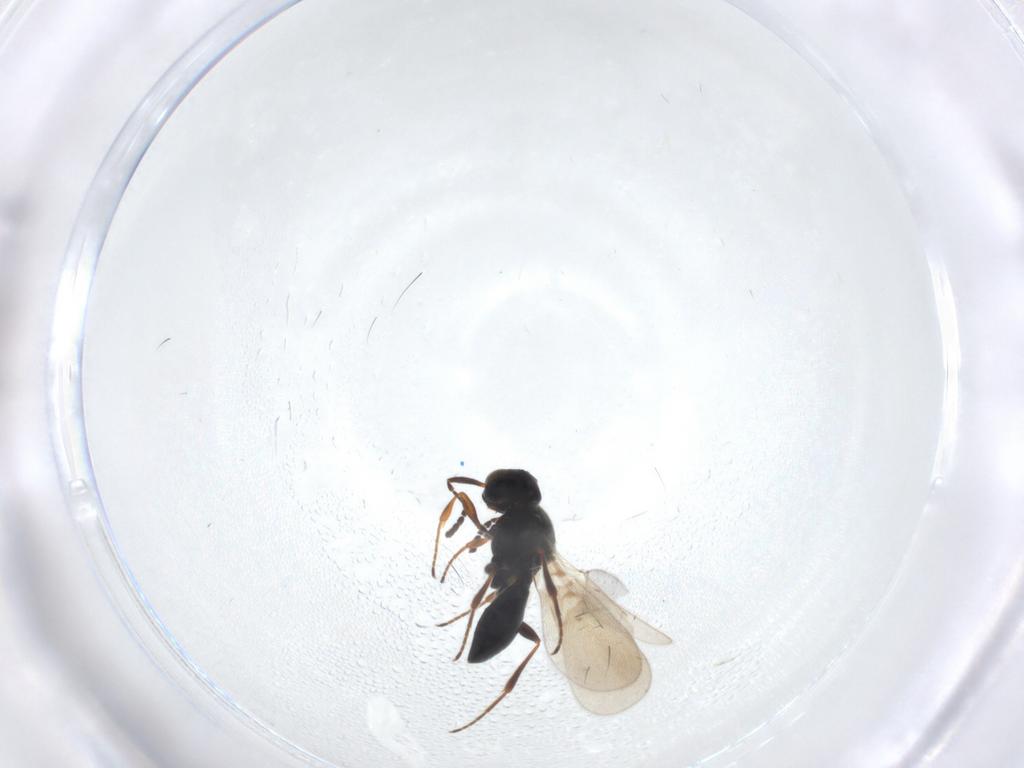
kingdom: Animalia
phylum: Arthropoda
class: Insecta
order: Hymenoptera
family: Platygastridae
